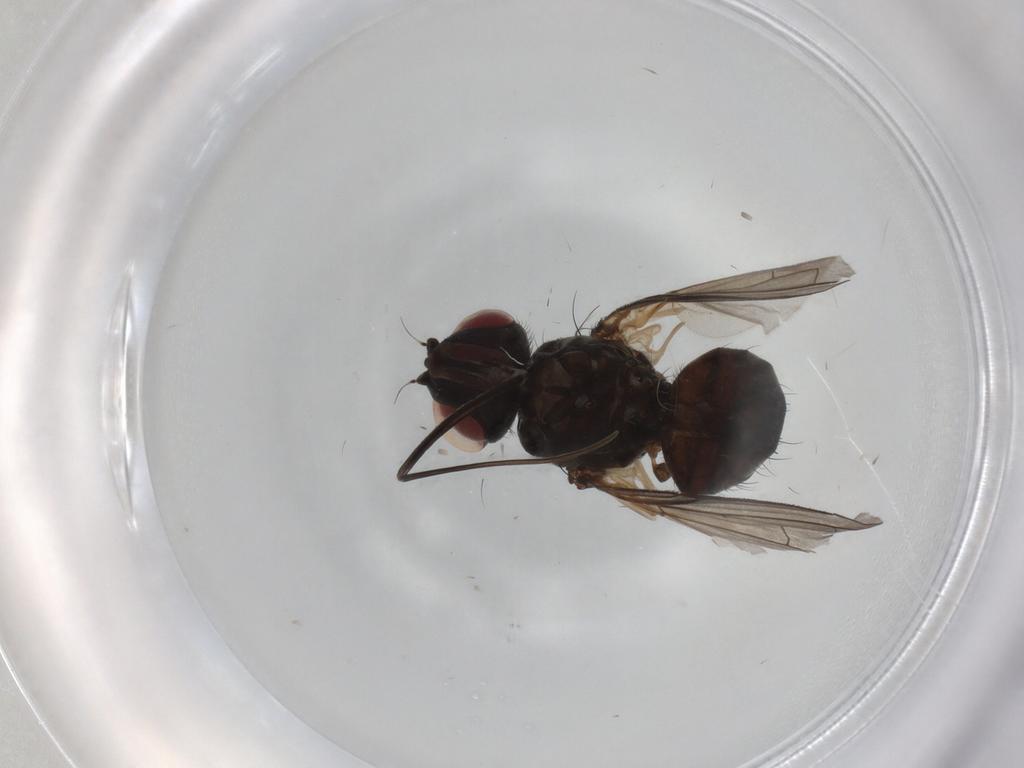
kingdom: Animalia
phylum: Arthropoda
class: Insecta
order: Diptera
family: Tachinidae
